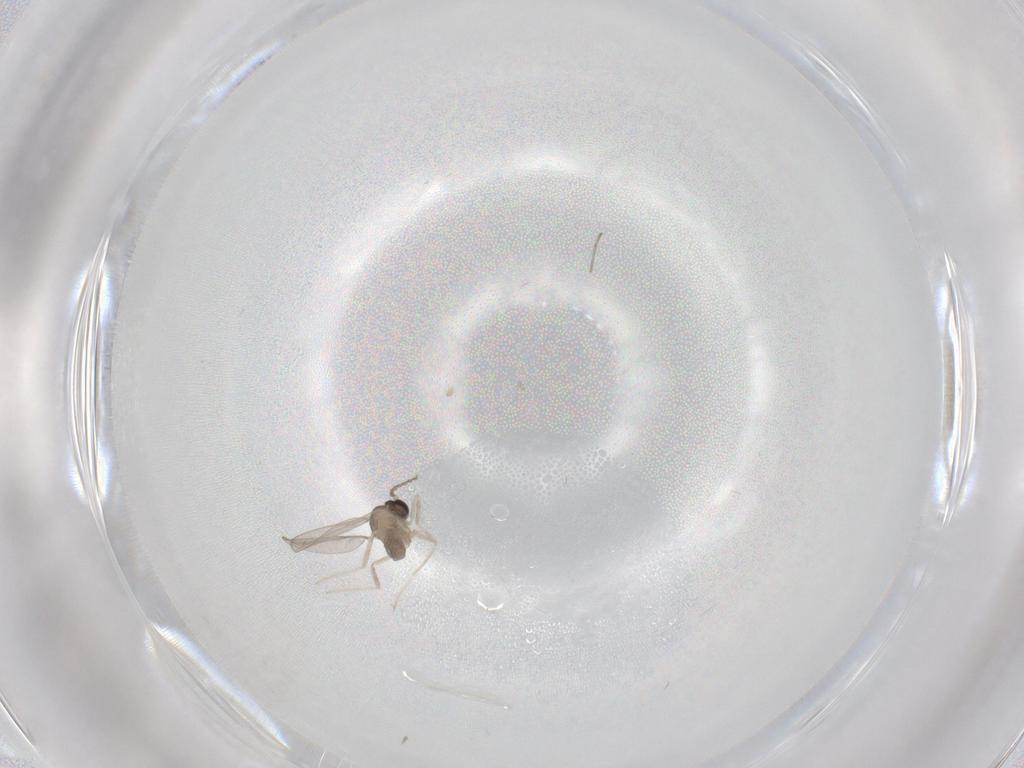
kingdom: Animalia
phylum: Arthropoda
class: Insecta
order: Diptera
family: Cecidomyiidae
